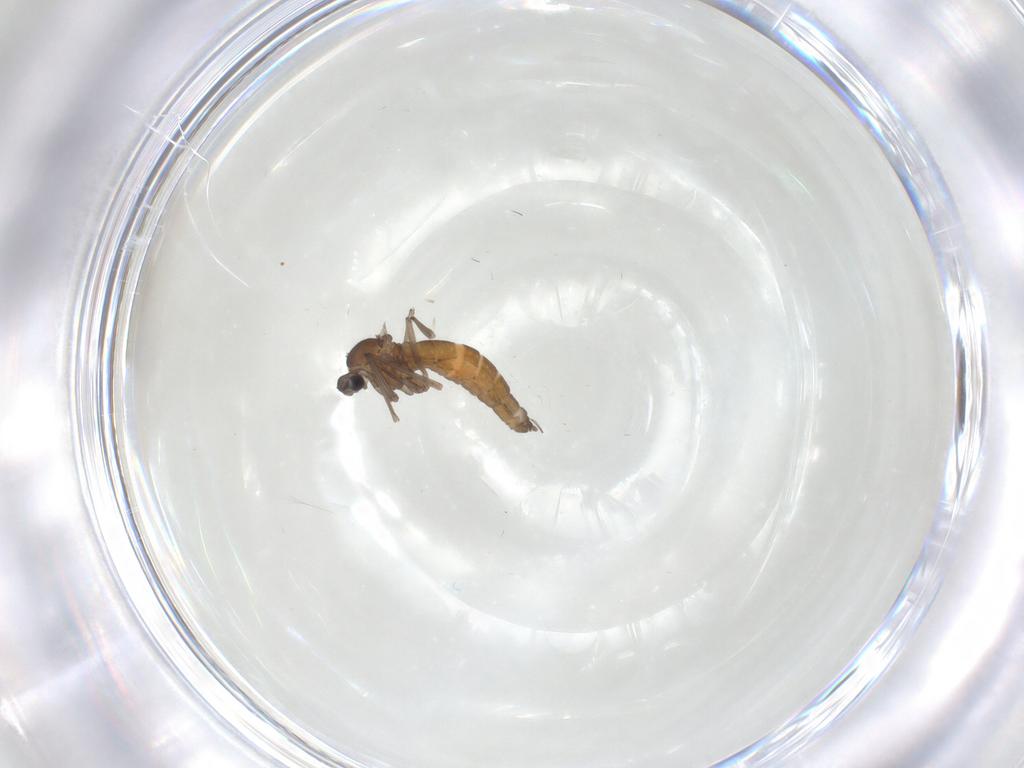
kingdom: Animalia
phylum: Arthropoda
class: Insecta
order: Diptera
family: Cecidomyiidae
